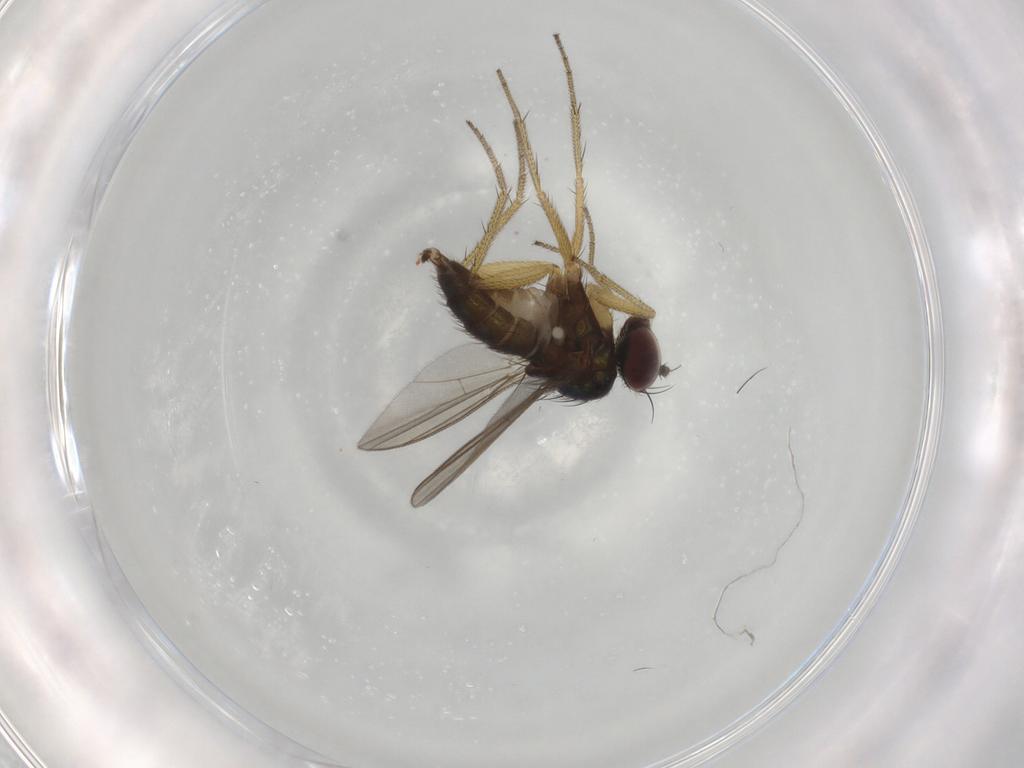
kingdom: Animalia
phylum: Arthropoda
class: Insecta
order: Diptera
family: Dolichopodidae
